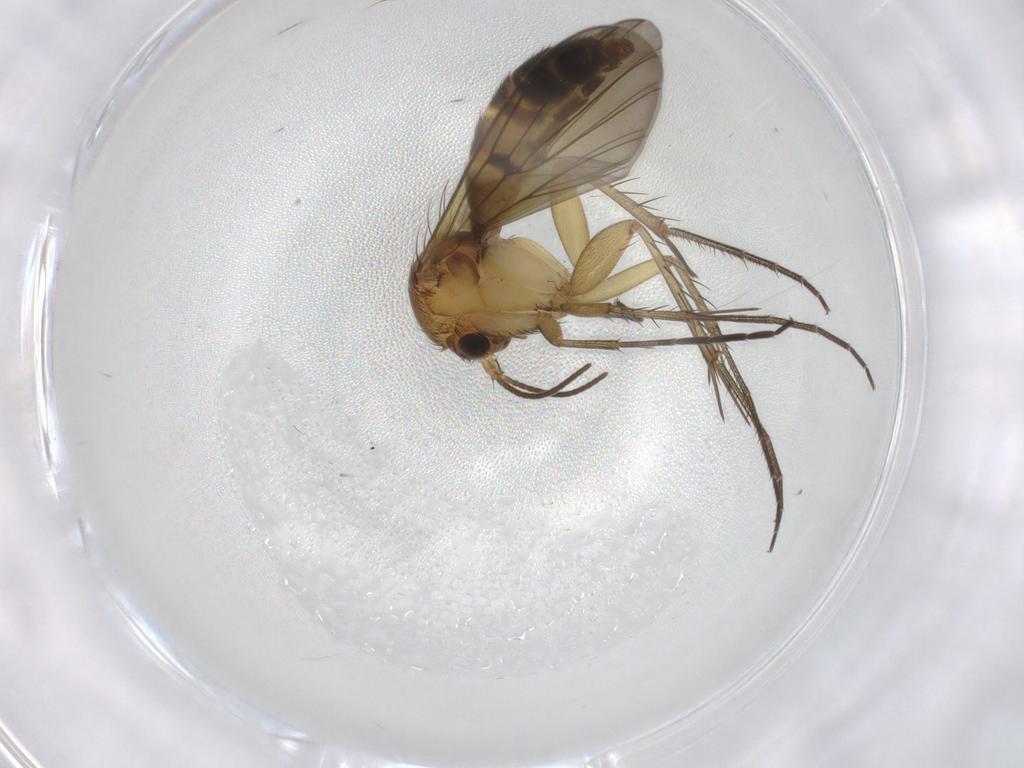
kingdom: Animalia
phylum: Arthropoda
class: Insecta
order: Diptera
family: Mycetophilidae
